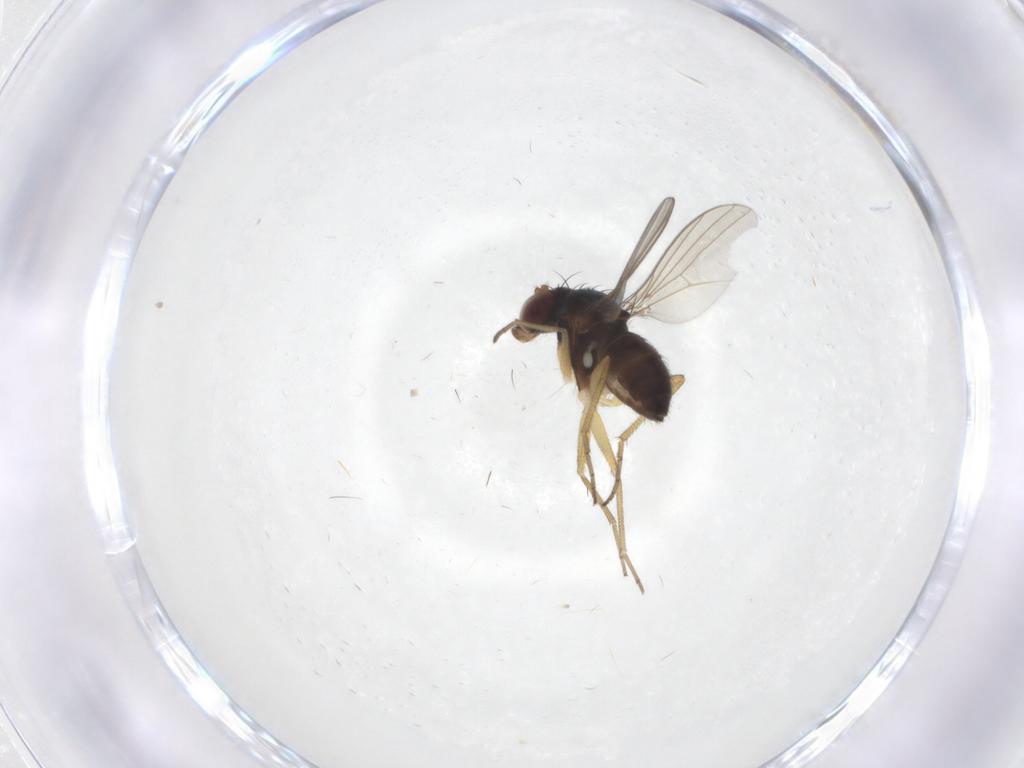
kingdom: Animalia
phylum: Arthropoda
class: Insecta
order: Diptera
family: Dolichopodidae
